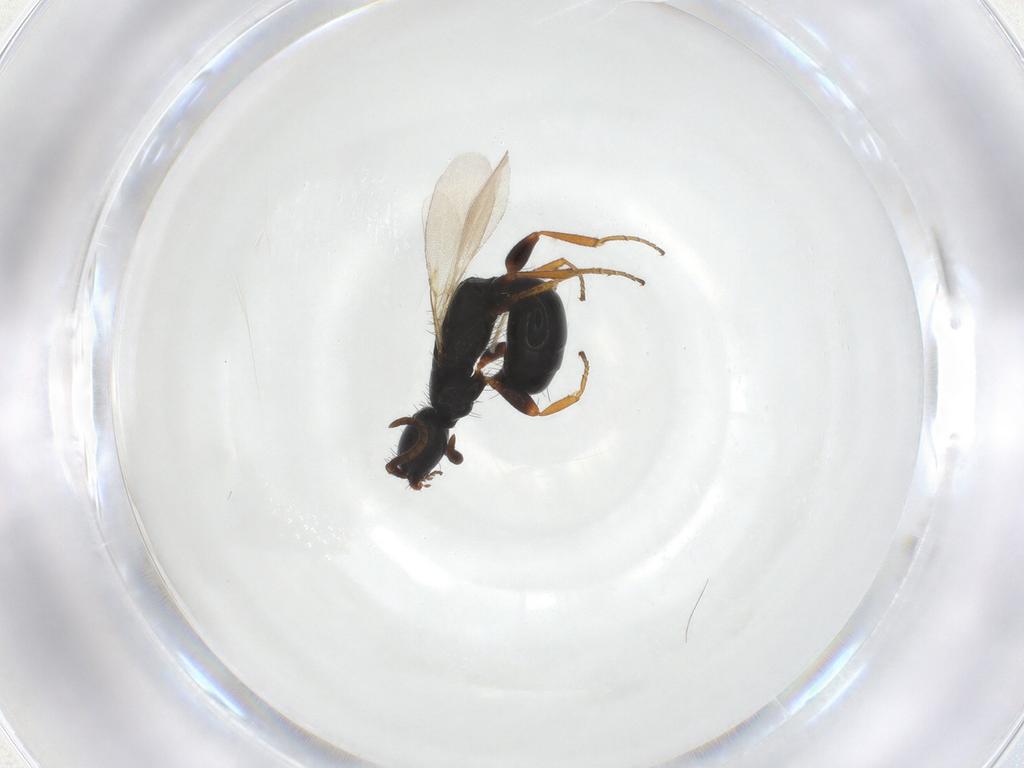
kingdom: Animalia
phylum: Arthropoda
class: Insecta
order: Hymenoptera
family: Bethylidae
